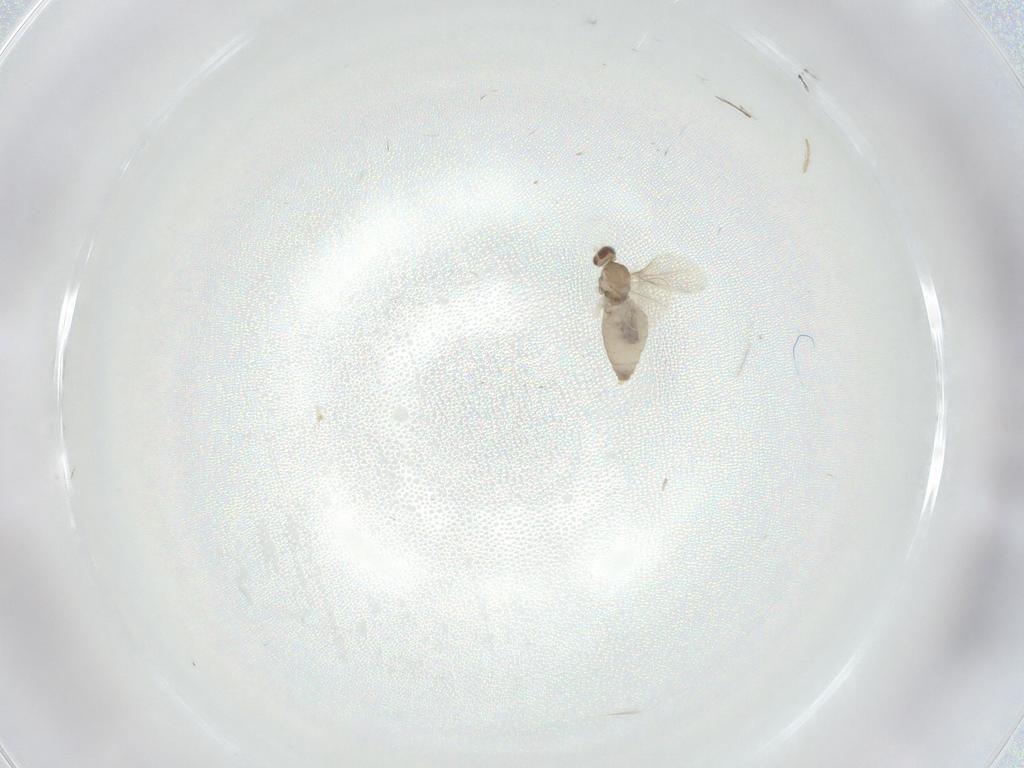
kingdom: Animalia
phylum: Arthropoda
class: Insecta
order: Diptera
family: Cecidomyiidae
